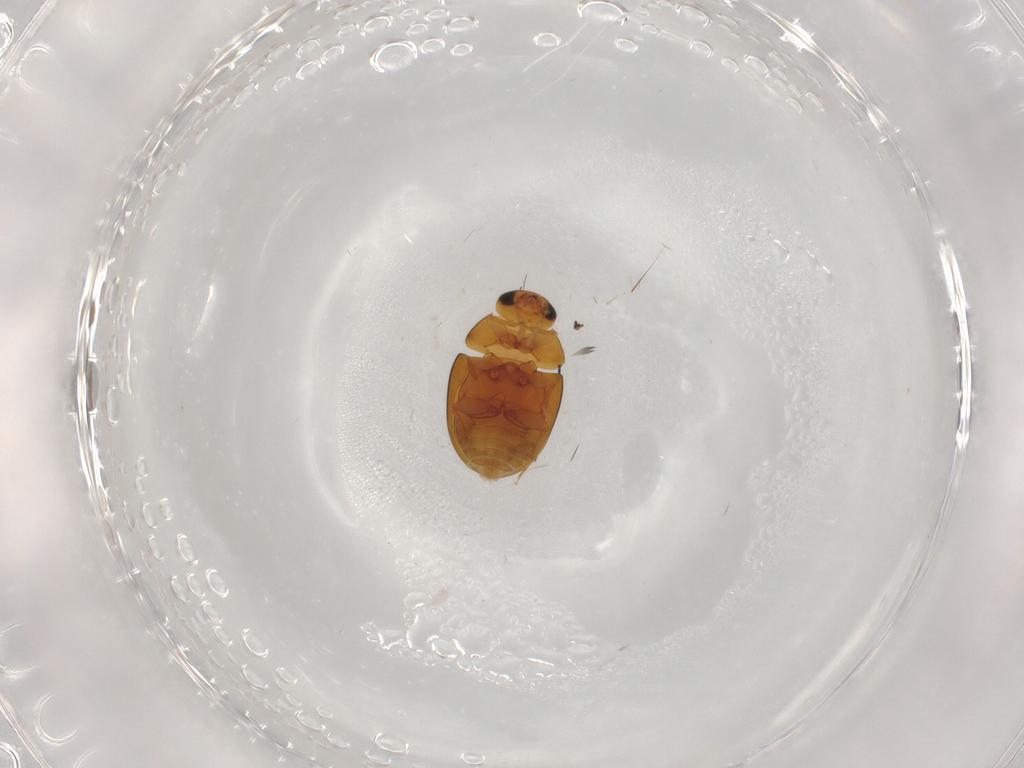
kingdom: Animalia
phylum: Arthropoda
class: Insecta
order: Coleoptera
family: Phalacridae
